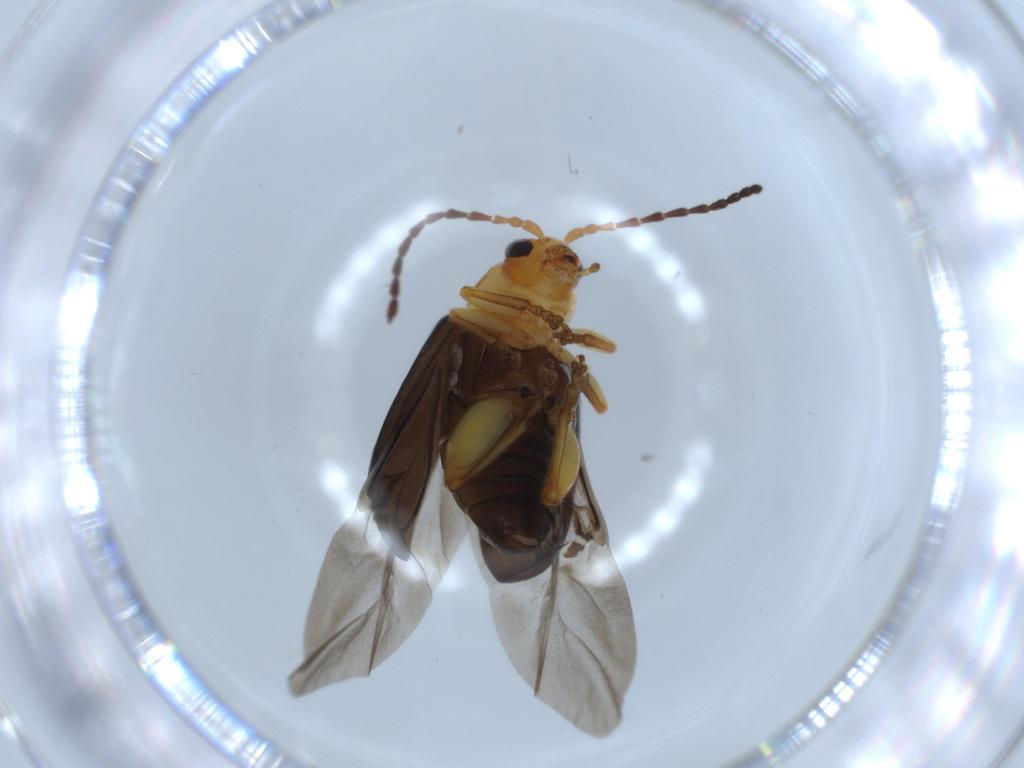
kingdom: Animalia
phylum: Arthropoda
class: Insecta
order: Coleoptera
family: Chrysomelidae
